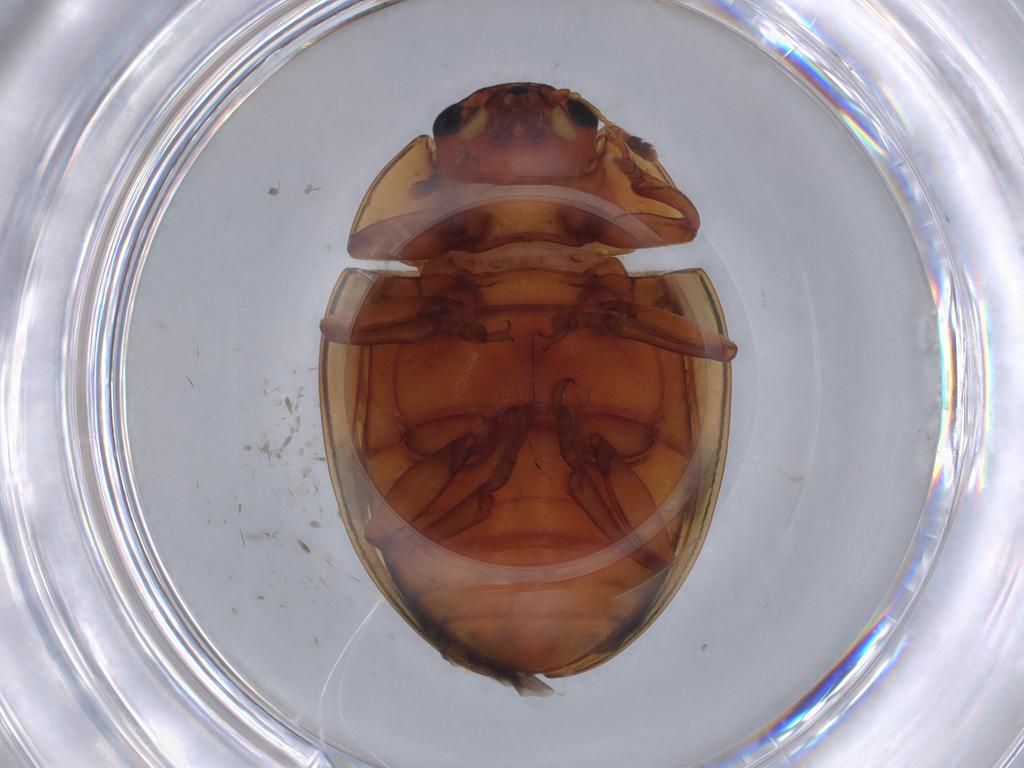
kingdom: Animalia
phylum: Arthropoda
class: Insecta
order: Coleoptera
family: Erotylidae
